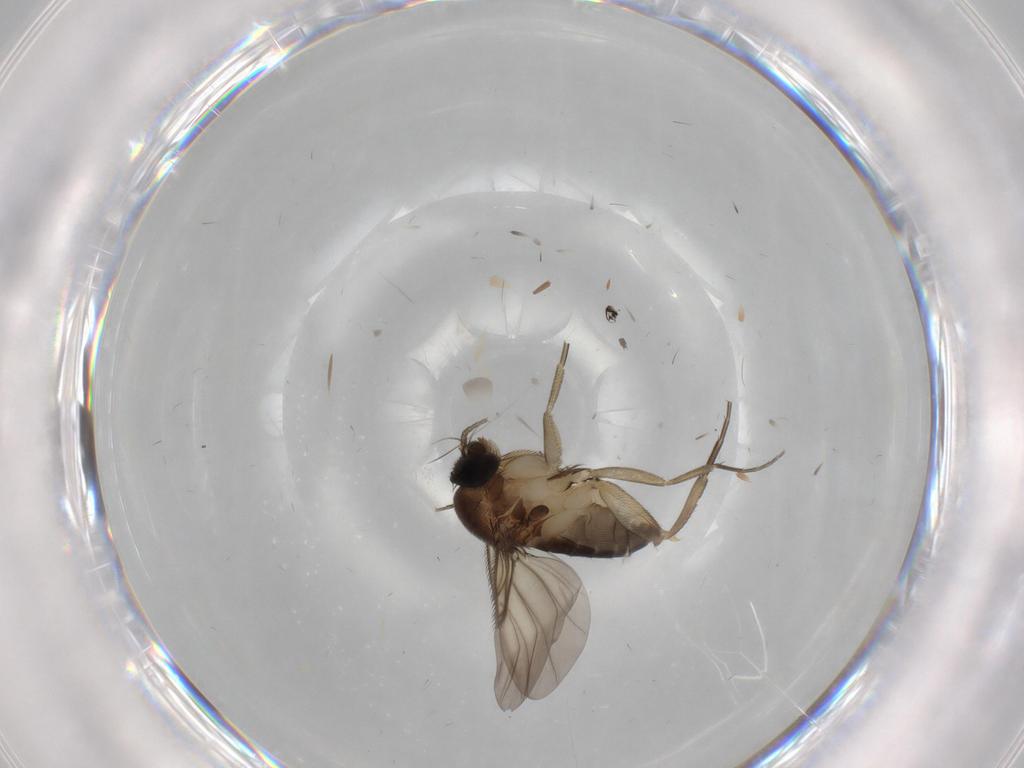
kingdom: Animalia
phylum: Arthropoda
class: Insecta
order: Diptera
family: Phoridae
